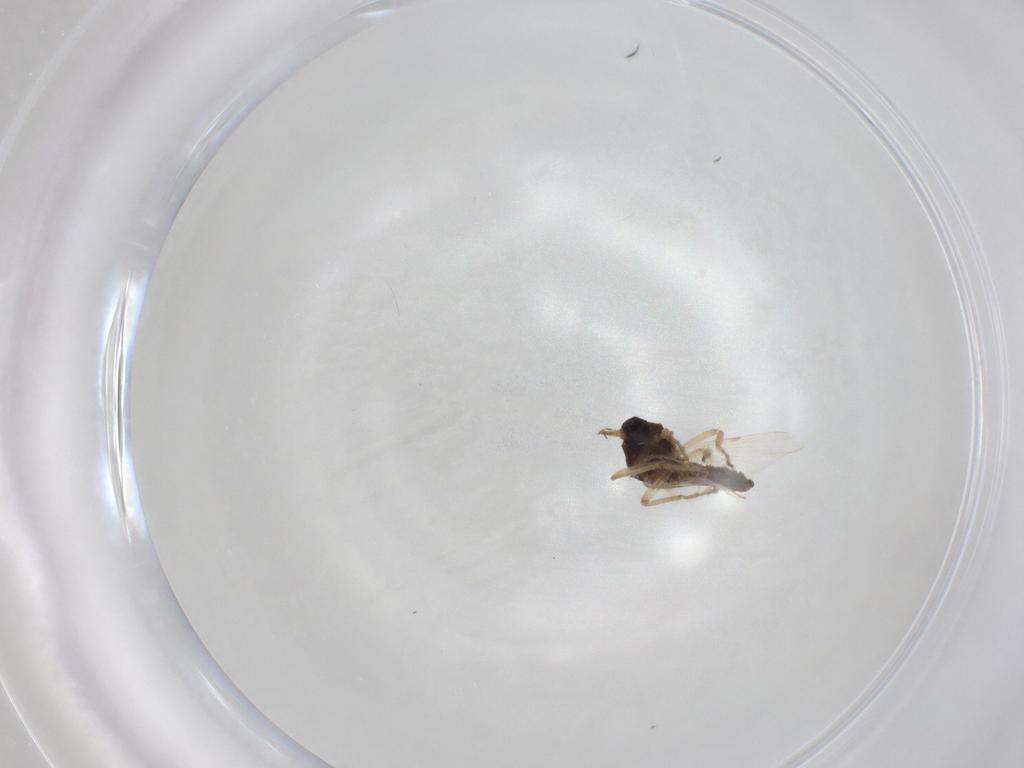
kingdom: Animalia
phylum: Arthropoda
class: Insecta
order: Diptera
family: Ceratopogonidae
